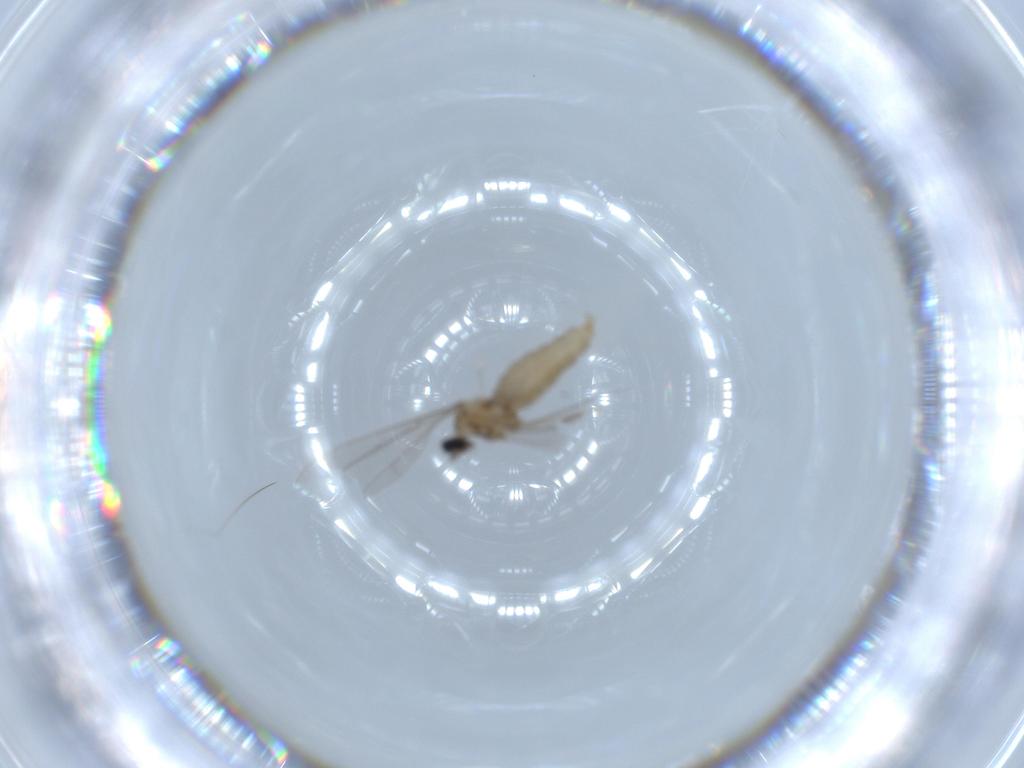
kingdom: Animalia
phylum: Arthropoda
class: Insecta
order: Diptera
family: Cecidomyiidae
